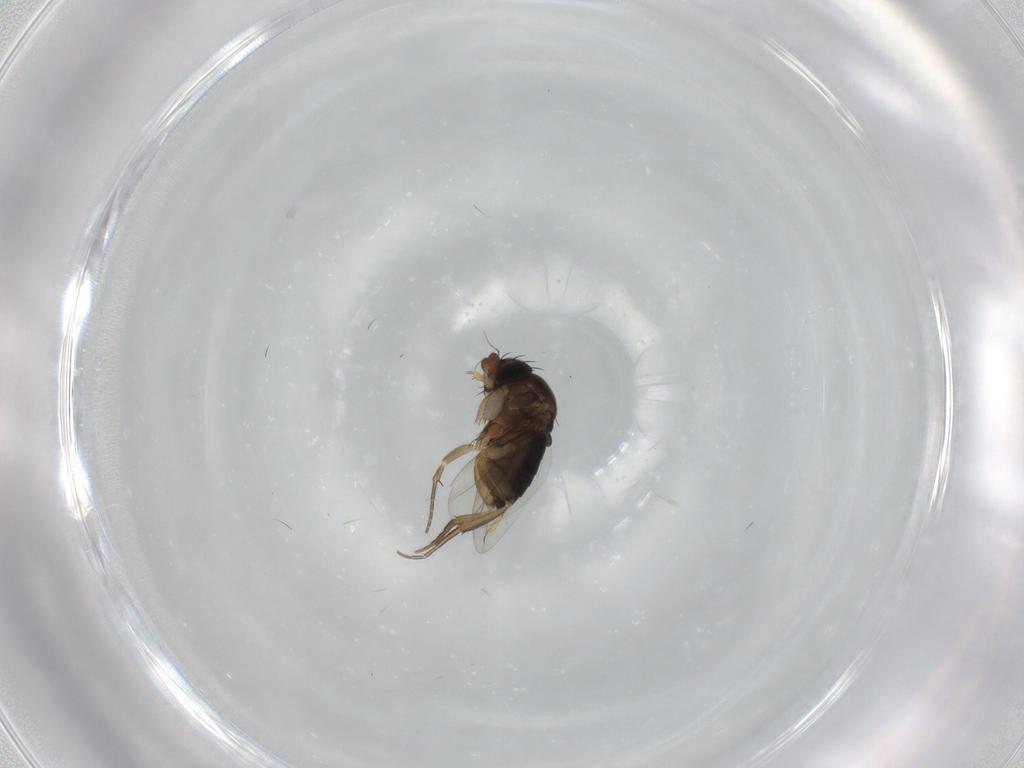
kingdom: Animalia
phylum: Arthropoda
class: Insecta
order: Diptera
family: Phoridae
